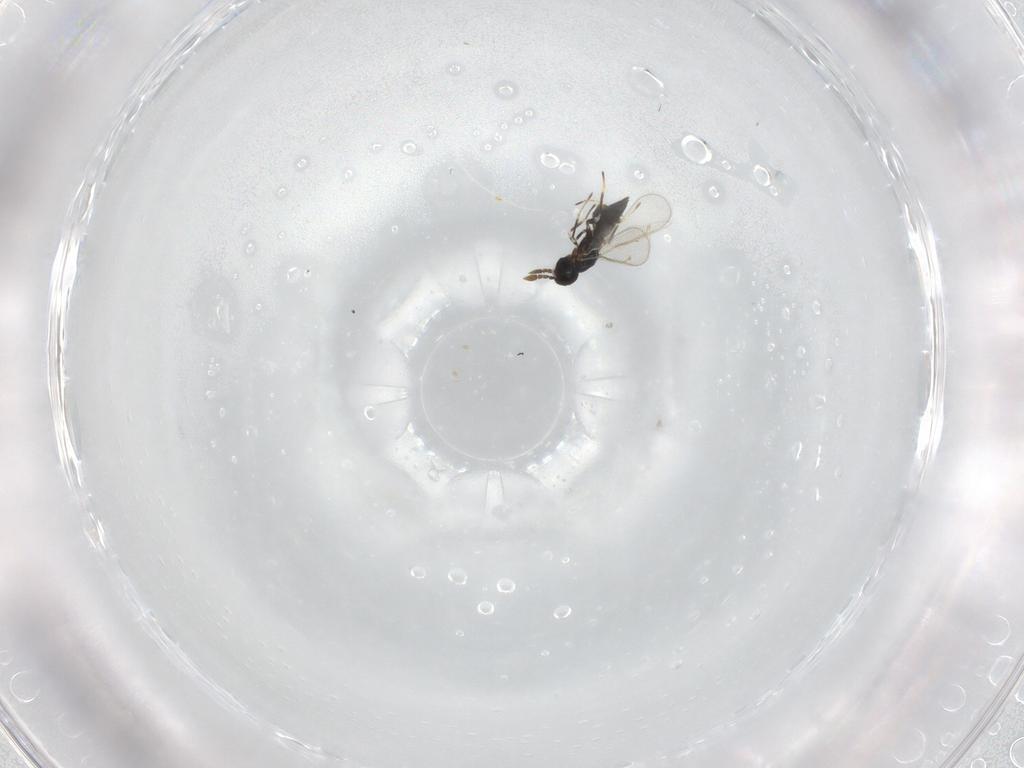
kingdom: Animalia
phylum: Arthropoda
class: Insecta
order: Hymenoptera
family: Eulophidae
